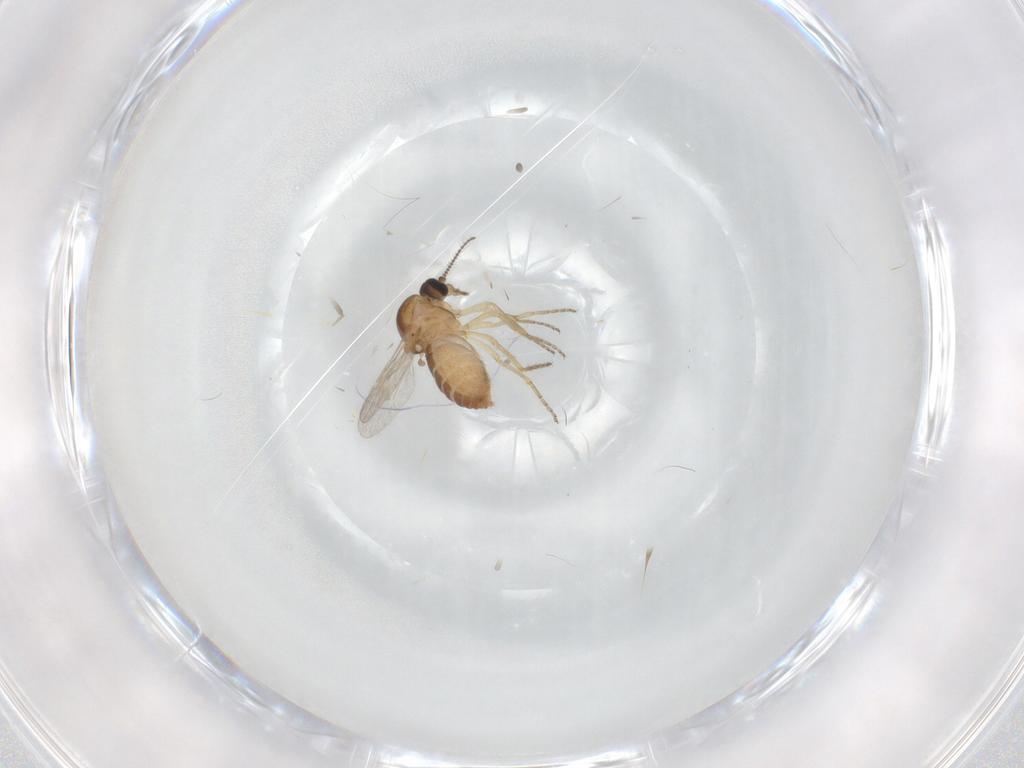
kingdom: Animalia
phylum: Arthropoda
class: Insecta
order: Diptera
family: Ceratopogonidae
